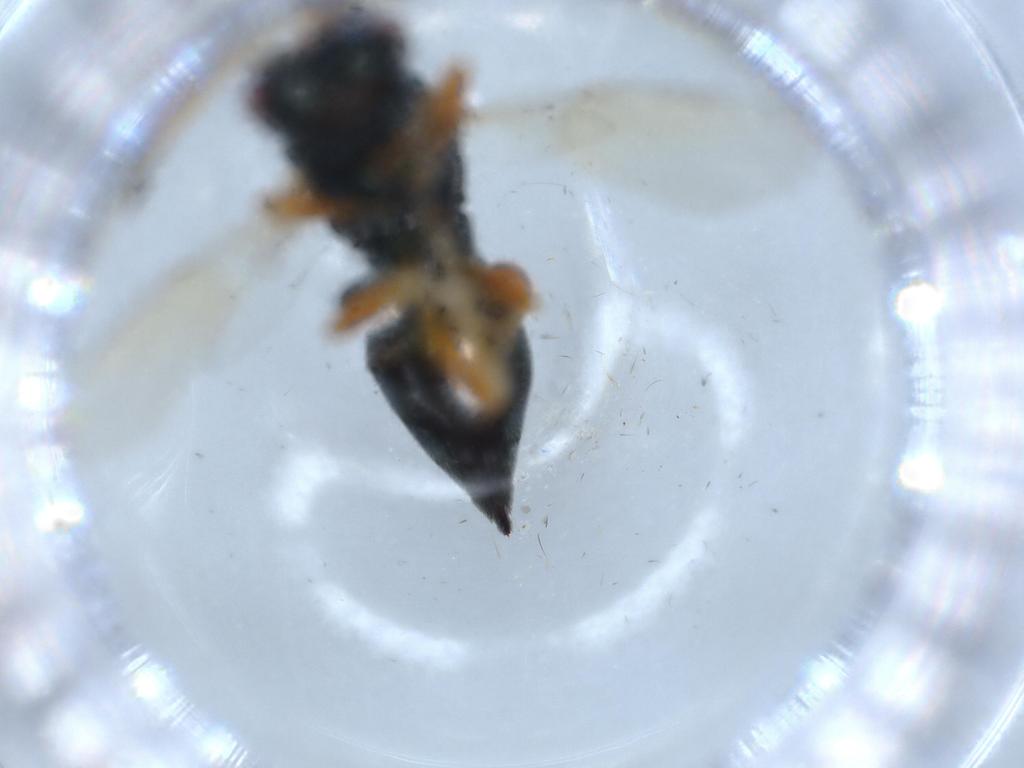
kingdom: Animalia
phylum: Arthropoda
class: Insecta
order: Hymenoptera
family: Pteromalidae
